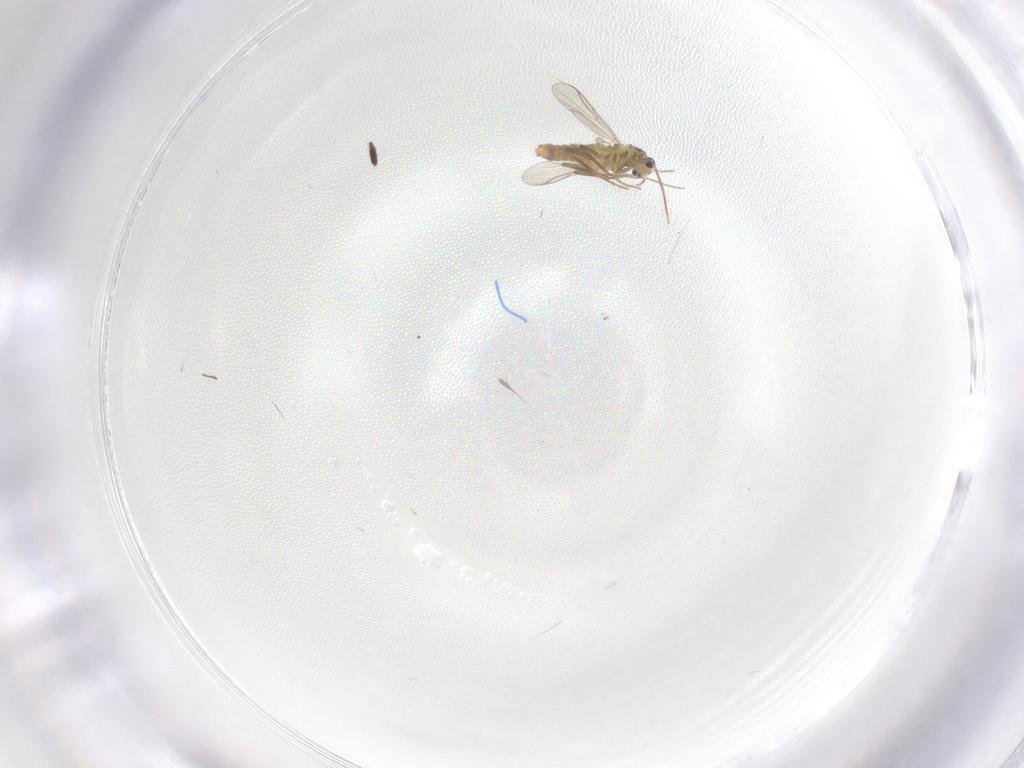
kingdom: Animalia
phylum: Arthropoda
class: Insecta
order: Diptera
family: Chironomidae
